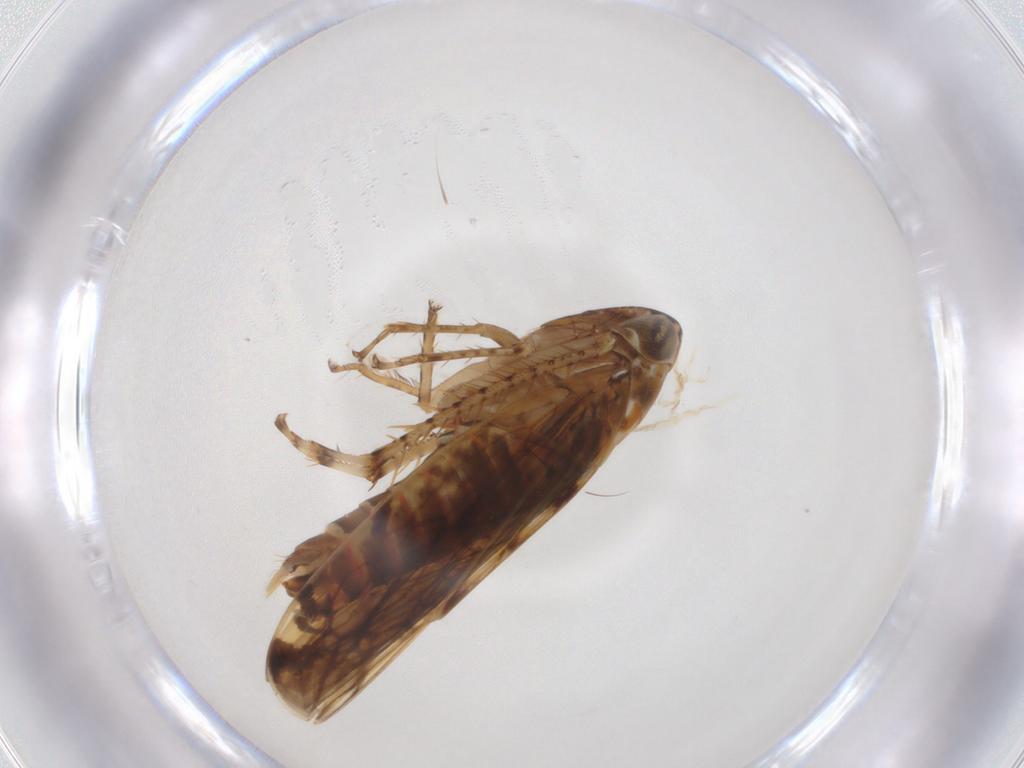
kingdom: Animalia
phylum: Arthropoda
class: Insecta
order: Hemiptera
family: Cicadellidae
